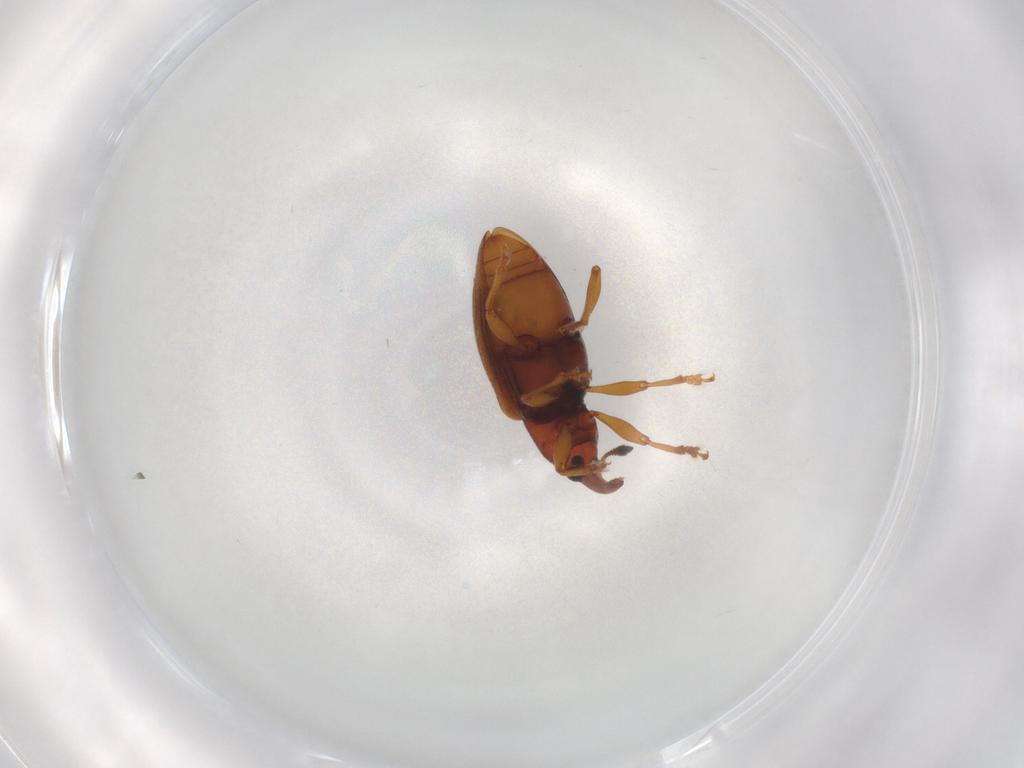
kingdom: Animalia
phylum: Arthropoda
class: Insecta
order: Coleoptera
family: Curculionidae
